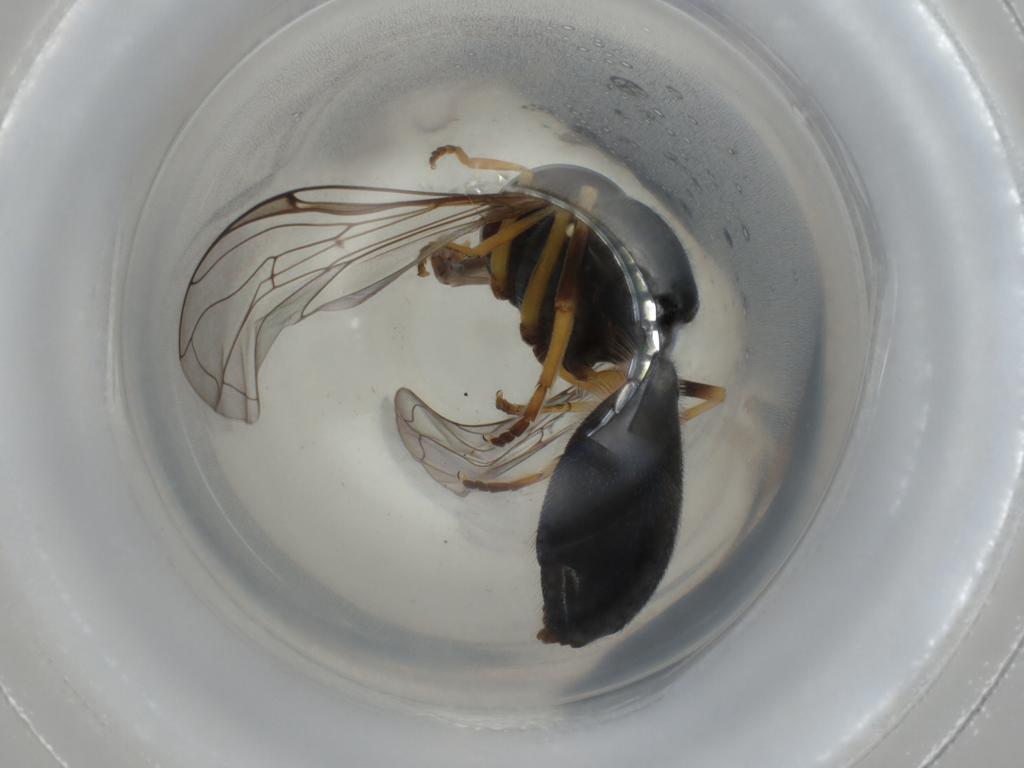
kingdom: Animalia
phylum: Arthropoda
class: Insecta
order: Diptera
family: Syrphidae
